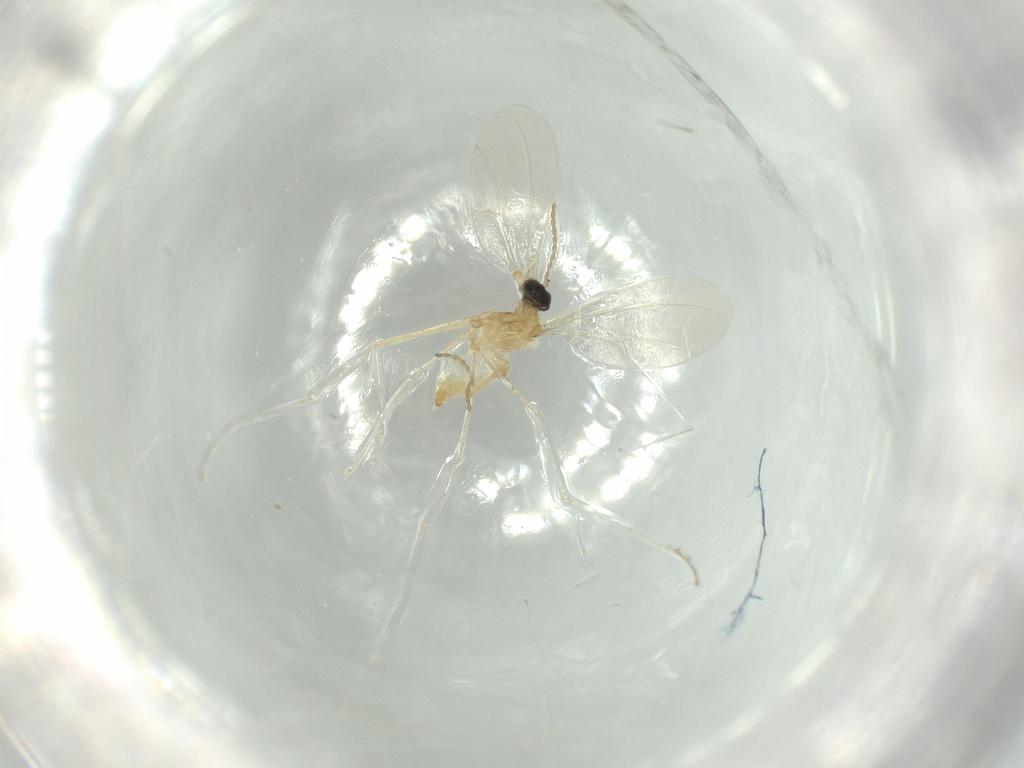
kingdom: Animalia
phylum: Arthropoda
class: Insecta
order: Diptera
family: Cecidomyiidae
